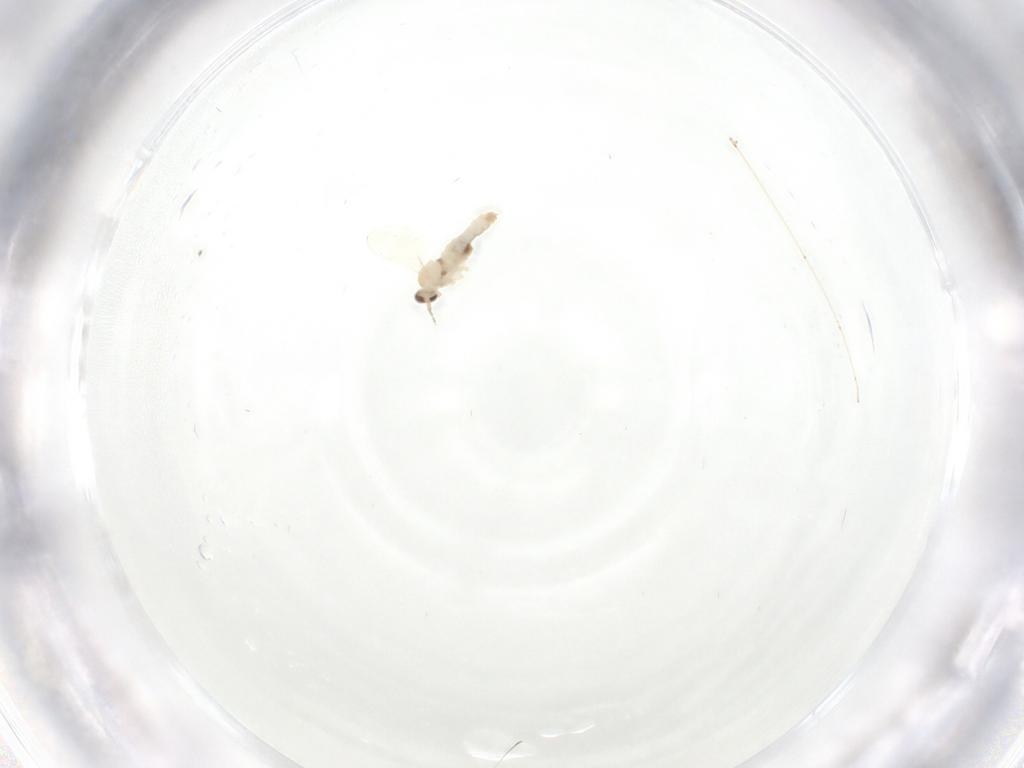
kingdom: Animalia
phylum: Arthropoda
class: Insecta
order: Diptera
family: Cecidomyiidae
